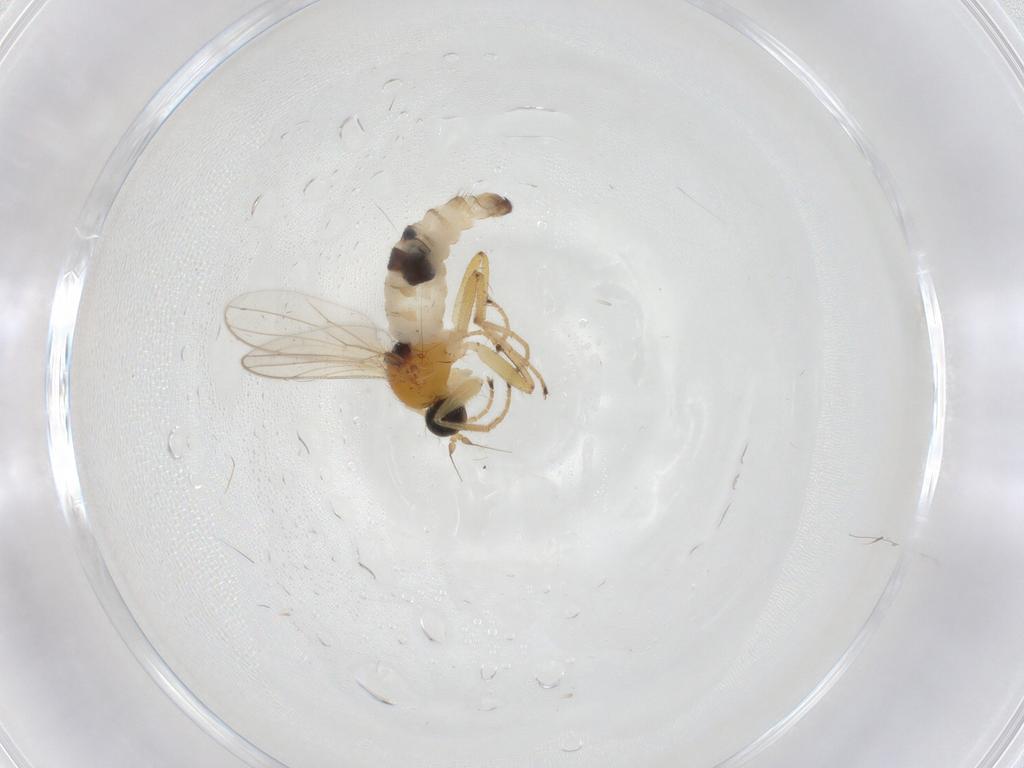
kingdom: Animalia
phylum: Arthropoda
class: Insecta
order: Diptera
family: Hybotidae
